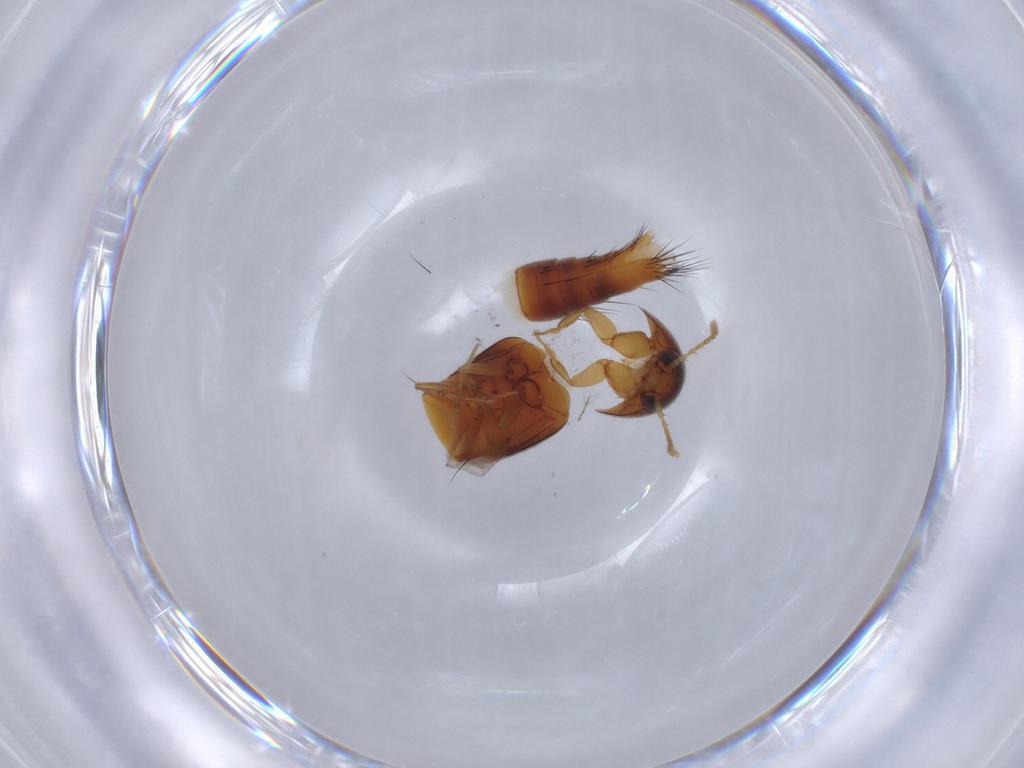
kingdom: Animalia
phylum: Arthropoda
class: Insecta
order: Coleoptera
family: Staphylinidae
